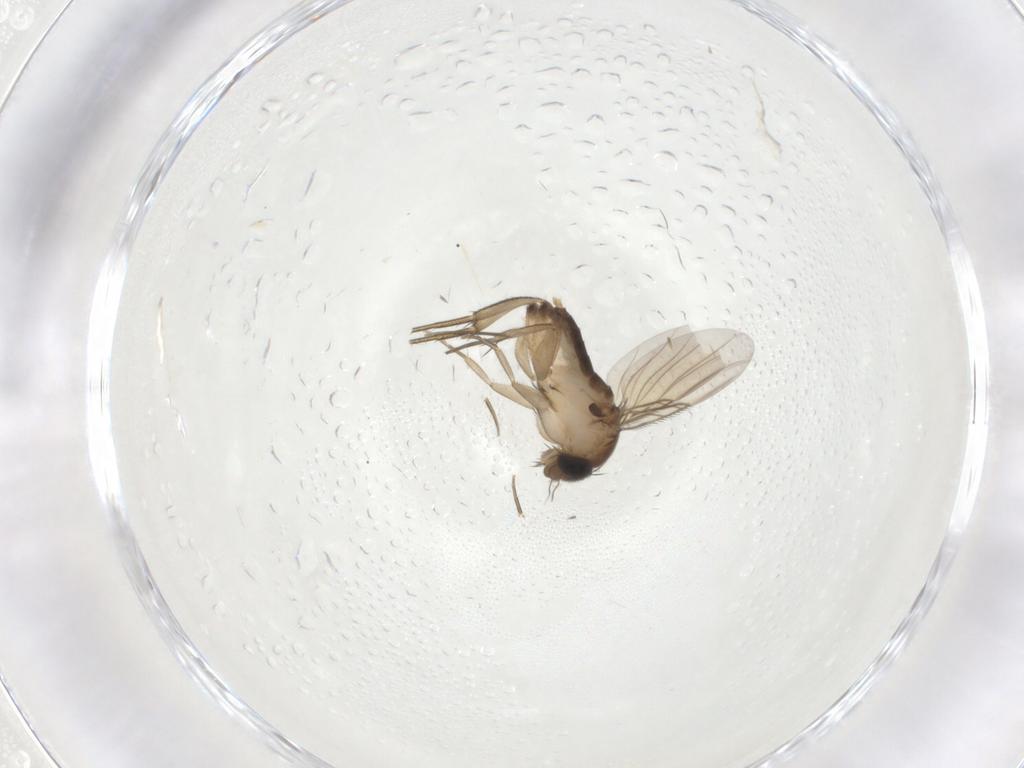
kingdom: Animalia
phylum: Arthropoda
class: Insecta
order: Diptera
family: Phoridae
